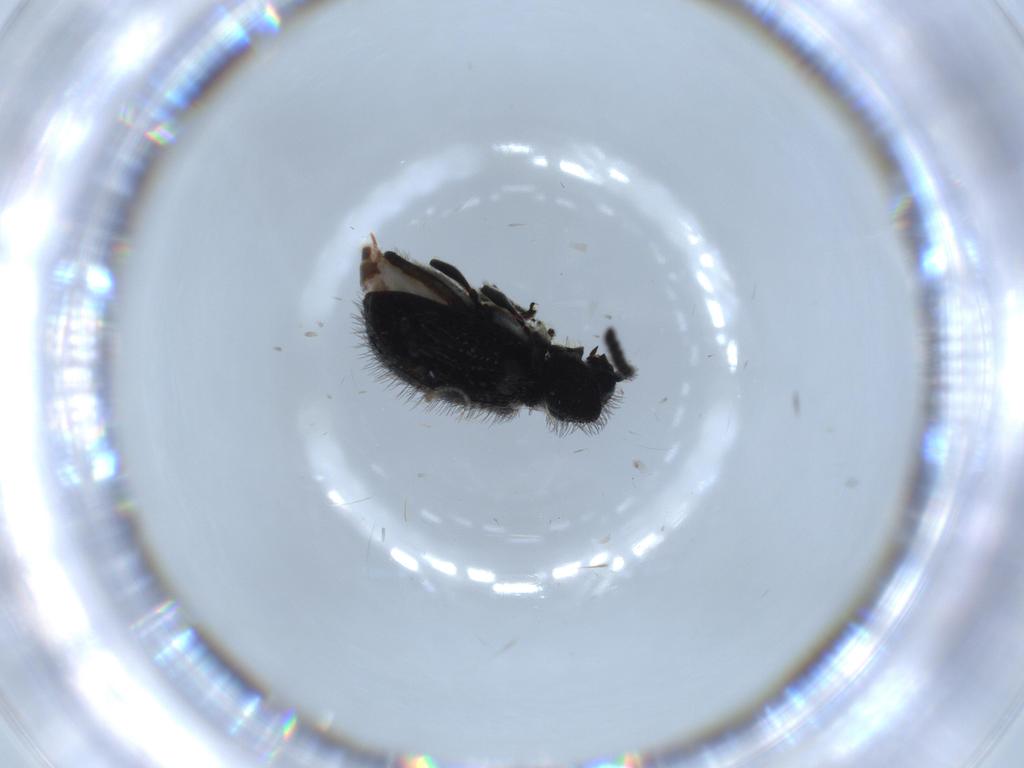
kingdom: Animalia
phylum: Arthropoda
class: Insecta
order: Coleoptera
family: Ptinidae
